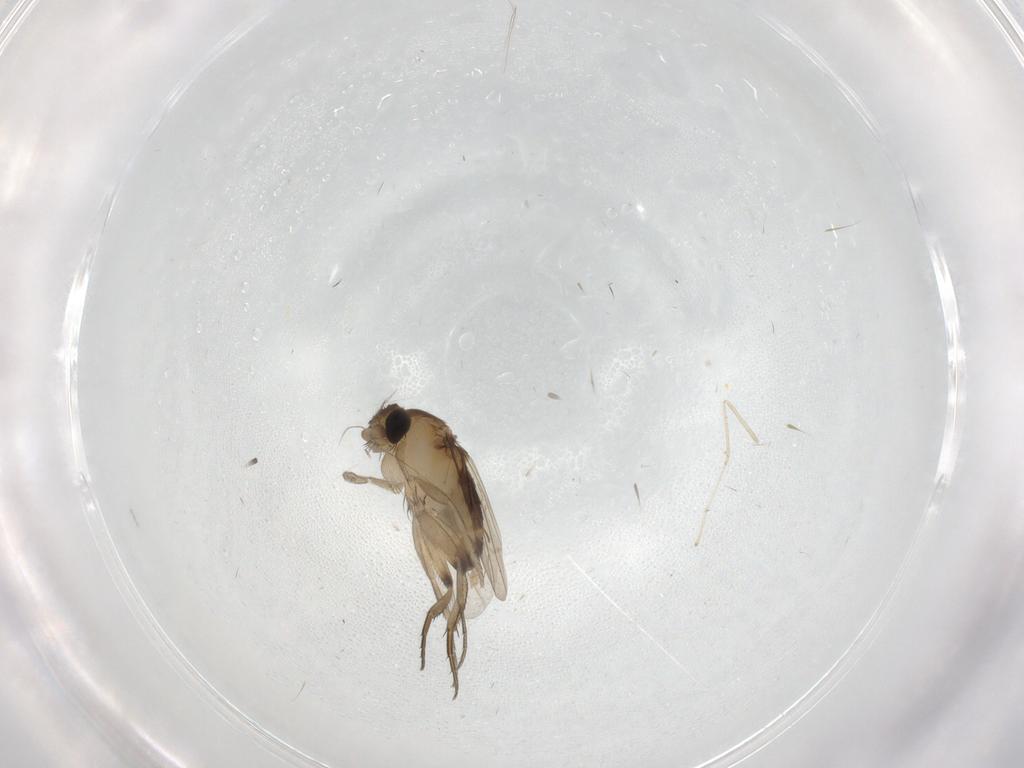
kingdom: Animalia
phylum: Arthropoda
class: Insecta
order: Diptera
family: Cecidomyiidae
